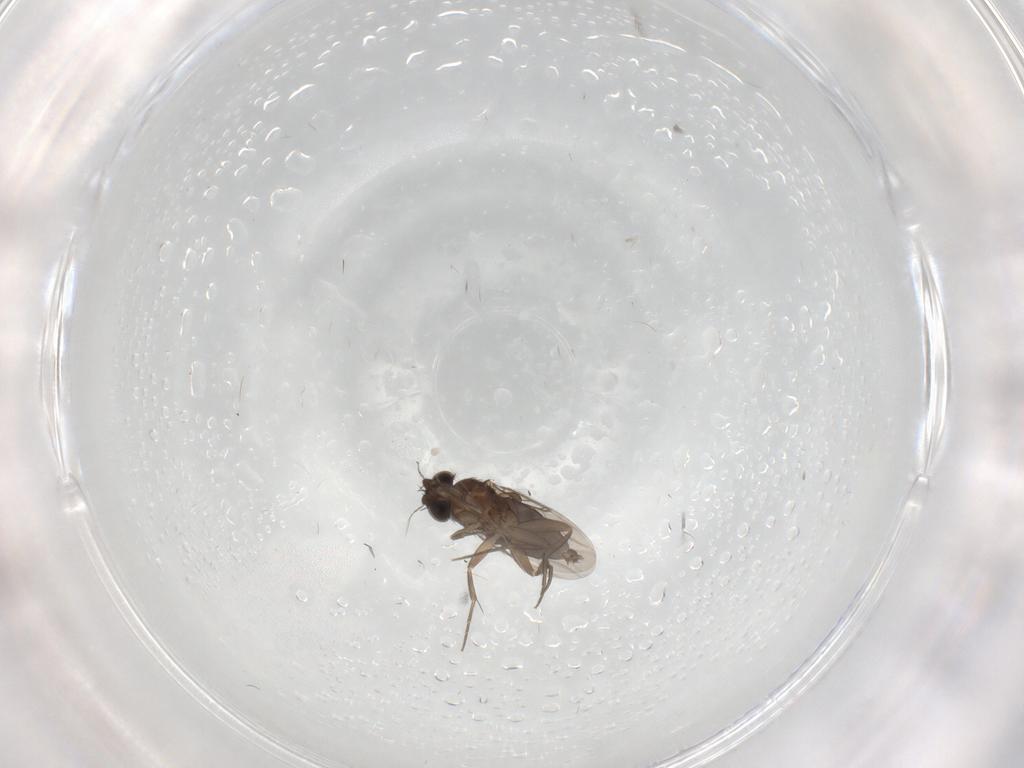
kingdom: Animalia
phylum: Arthropoda
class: Insecta
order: Diptera
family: Phoridae
